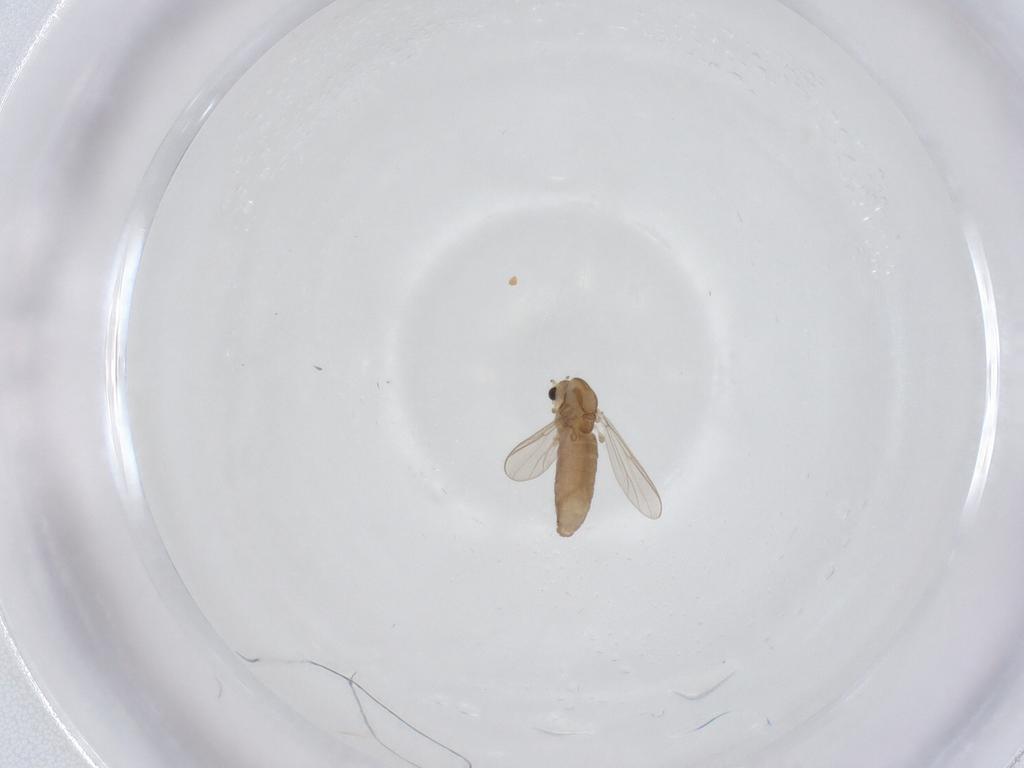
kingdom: Animalia
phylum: Arthropoda
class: Insecta
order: Diptera
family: Chironomidae
